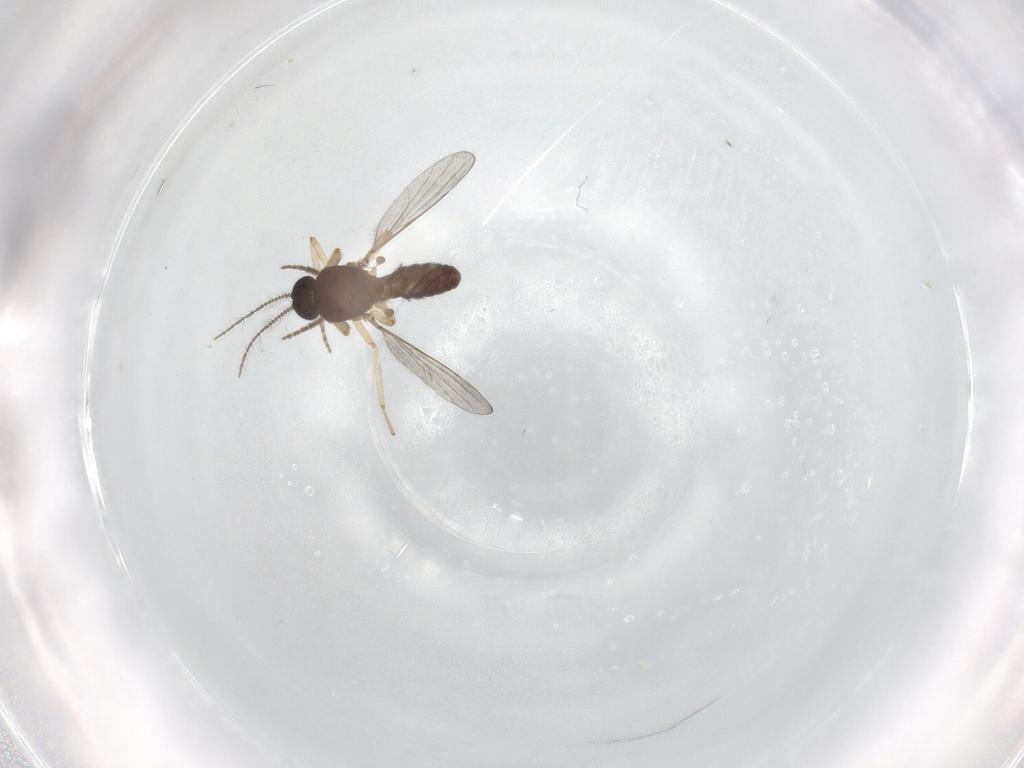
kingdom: Animalia
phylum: Arthropoda
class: Insecta
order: Diptera
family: Ceratopogonidae
